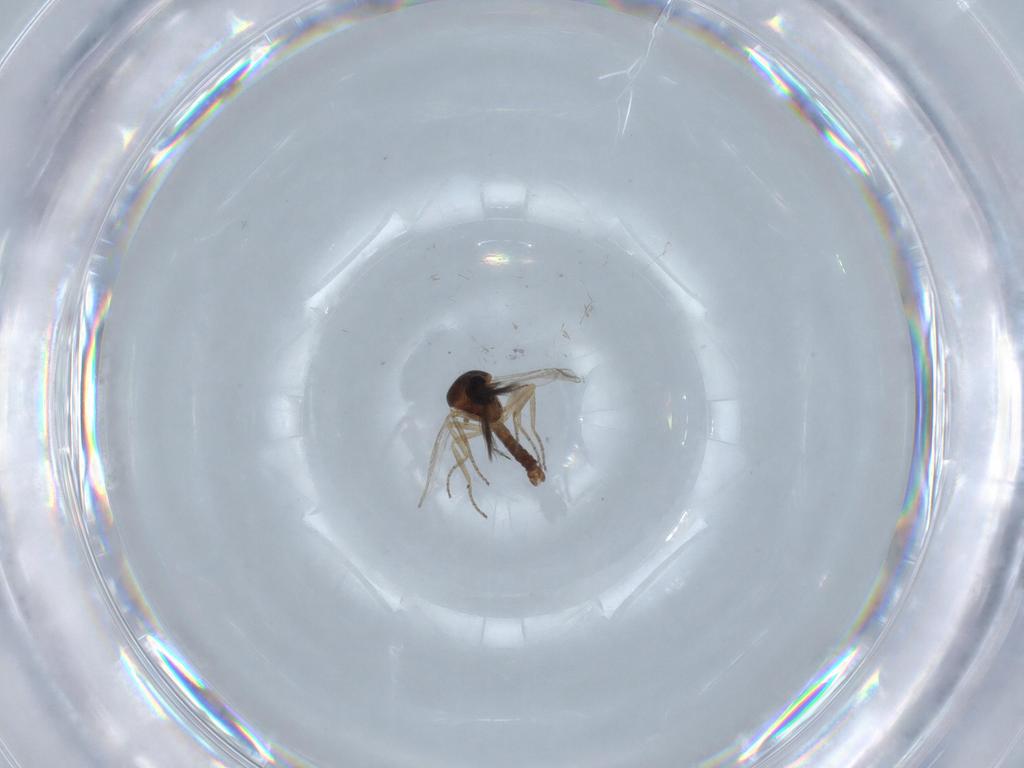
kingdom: Animalia
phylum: Arthropoda
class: Insecta
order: Diptera
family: Ceratopogonidae
